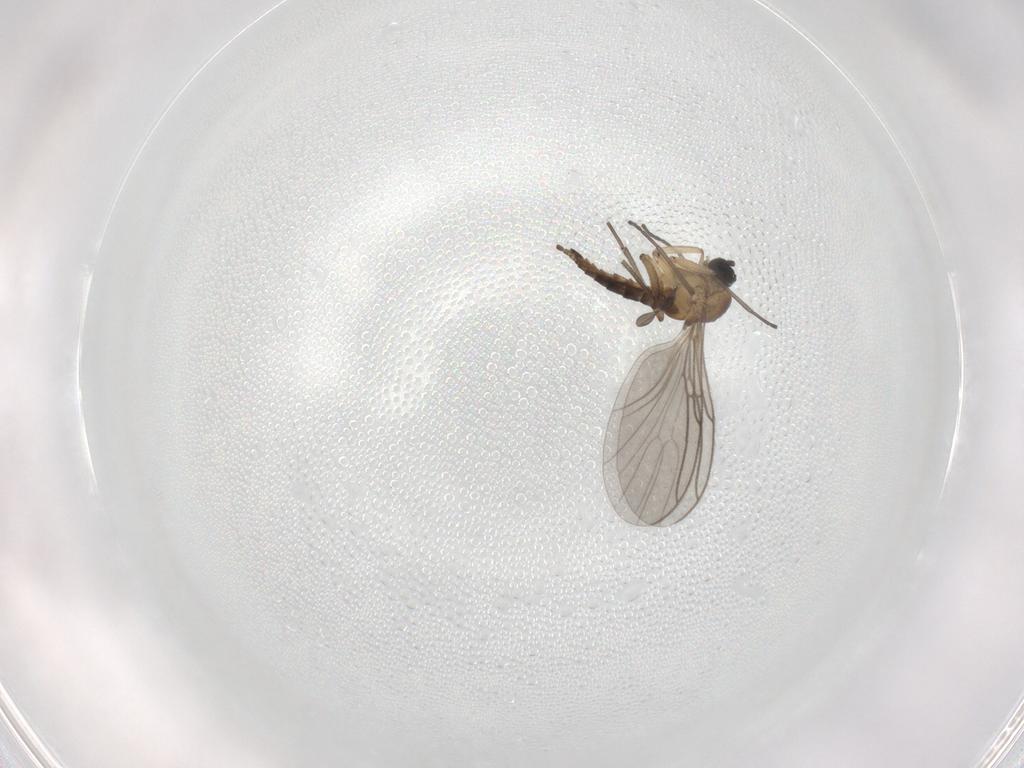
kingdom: Animalia
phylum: Arthropoda
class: Insecta
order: Diptera
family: Sciaridae
